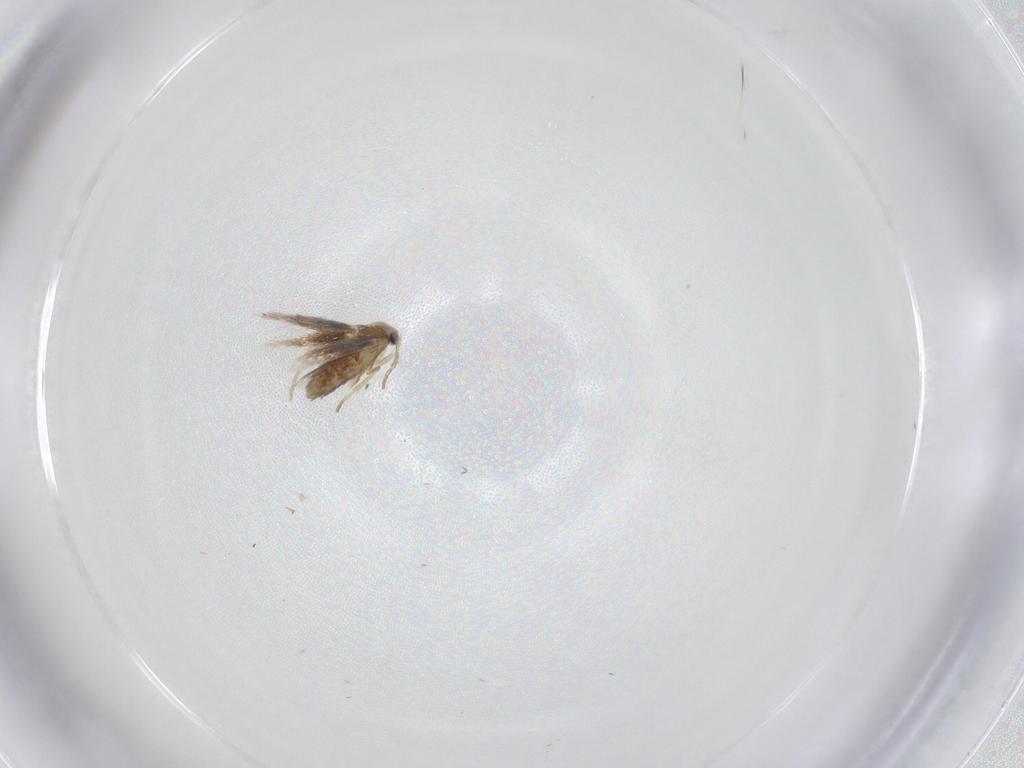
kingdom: Animalia
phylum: Arthropoda
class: Insecta
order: Lepidoptera
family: Nepticulidae
